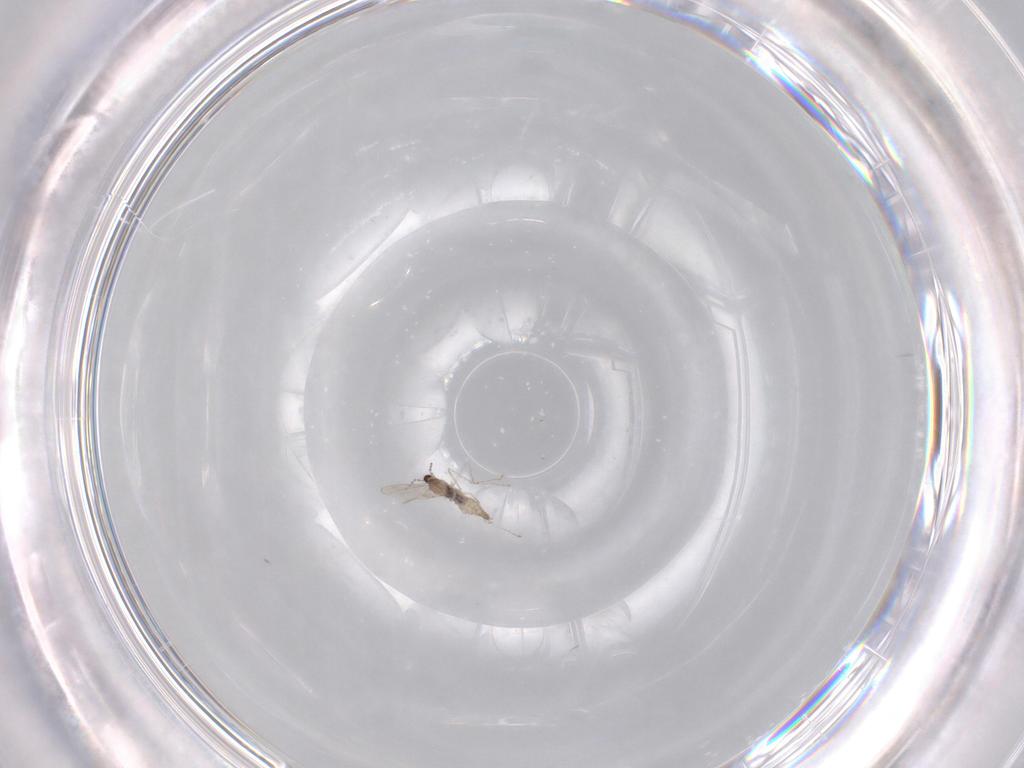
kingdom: Animalia
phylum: Arthropoda
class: Insecta
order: Diptera
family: Cecidomyiidae
